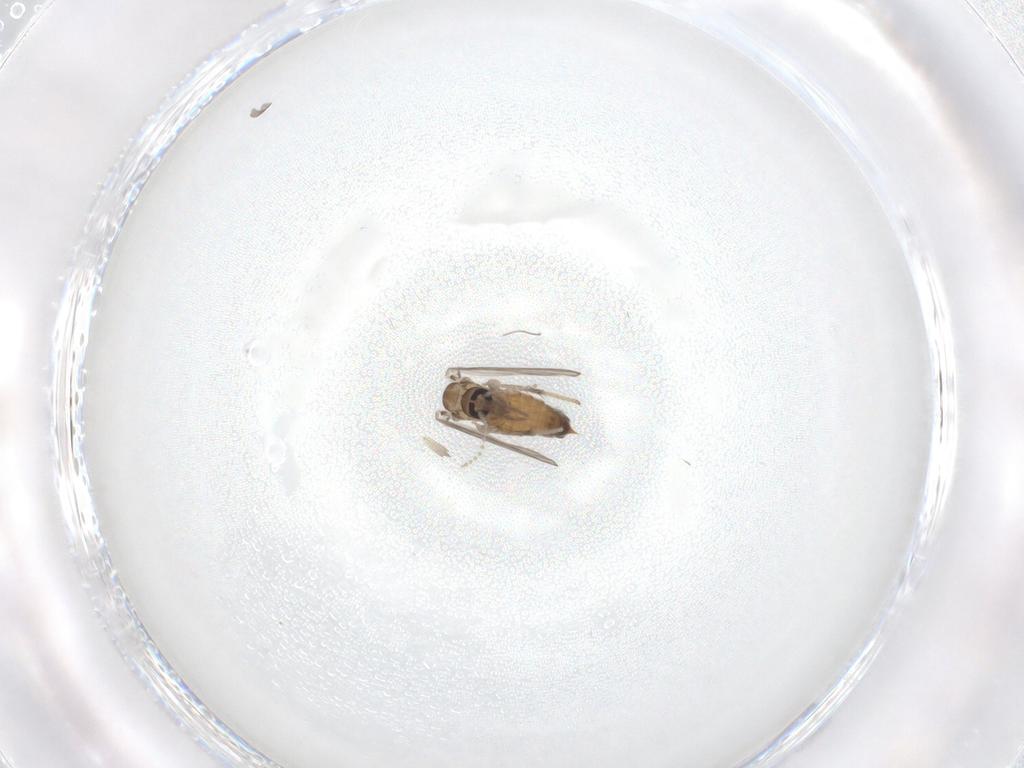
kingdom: Animalia
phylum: Arthropoda
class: Insecta
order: Diptera
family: Psychodidae
